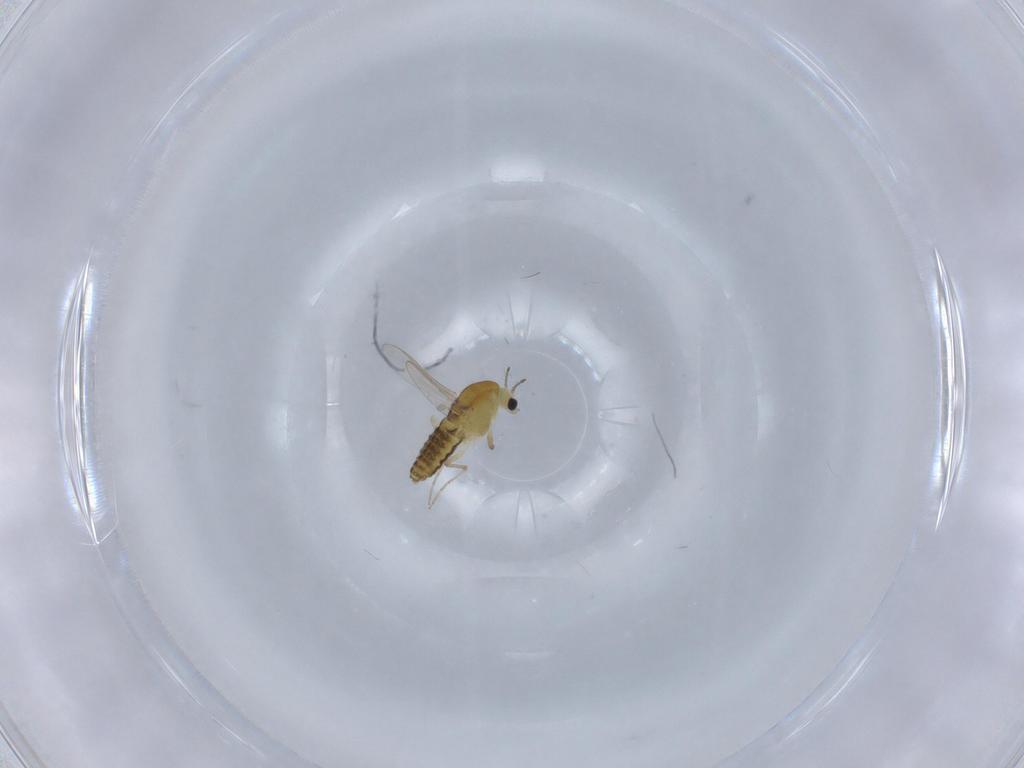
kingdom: Animalia
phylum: Arthropoda
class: Insecta
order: Diptera
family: Chironomidae
